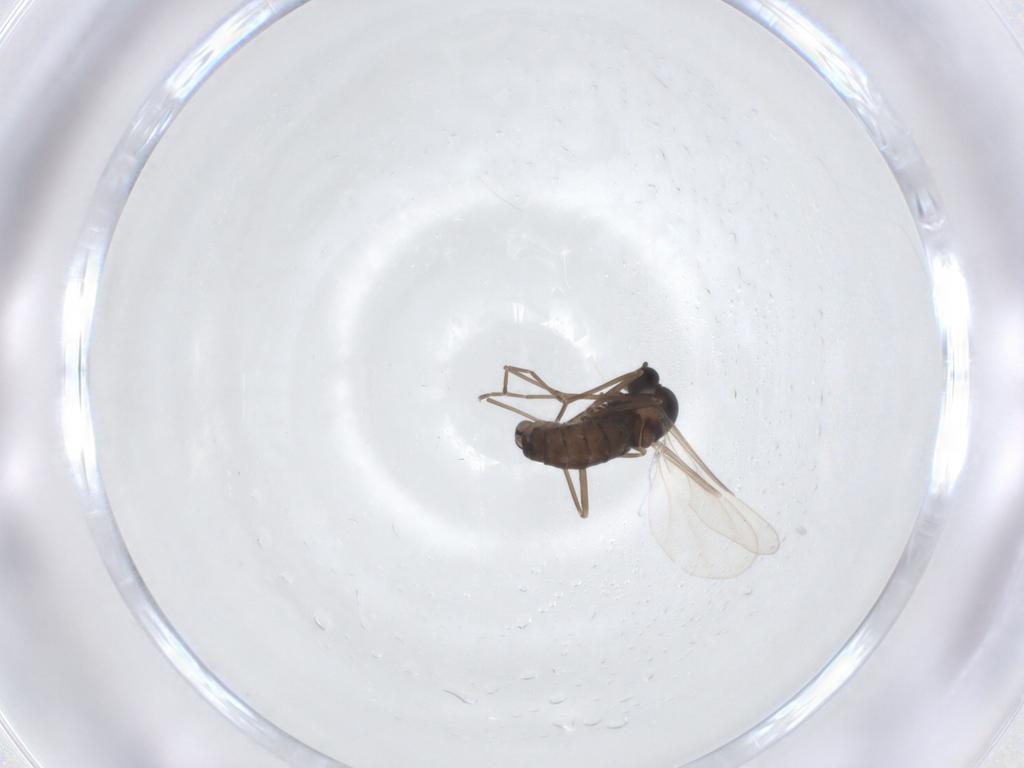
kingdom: Animalia
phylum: Arthropoda
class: Insecta
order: Diptera
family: Cecidomyiidae
